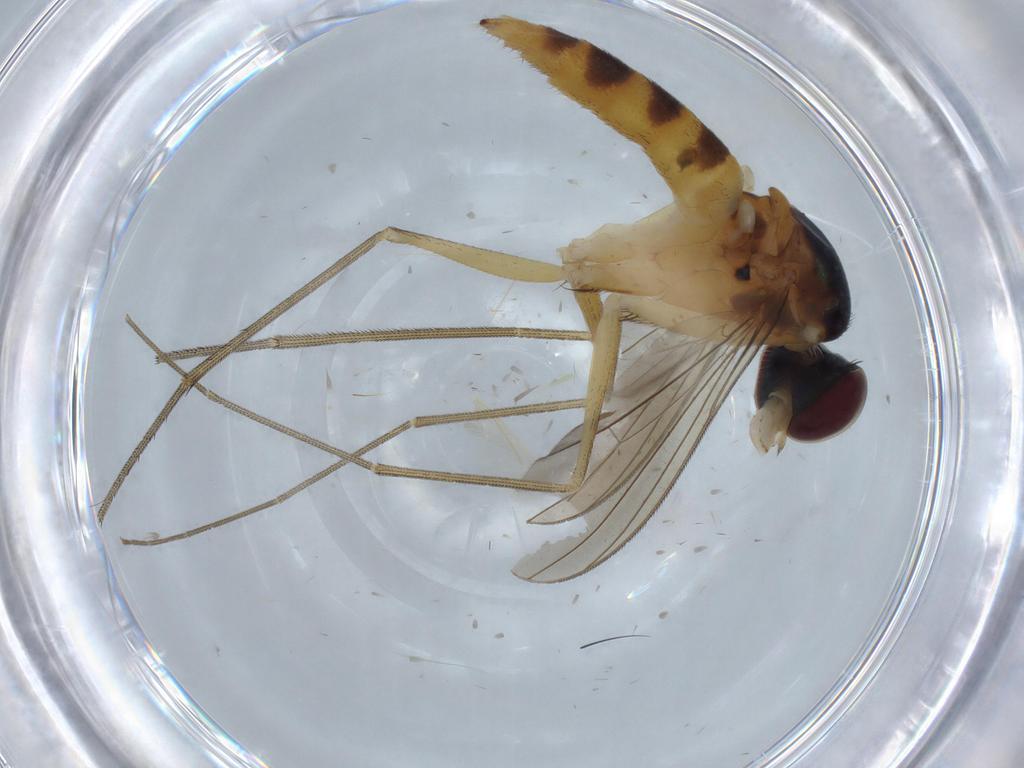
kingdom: Animalia
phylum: Arthropoda
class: Insecta
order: Diptera
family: Dolichopodidae
